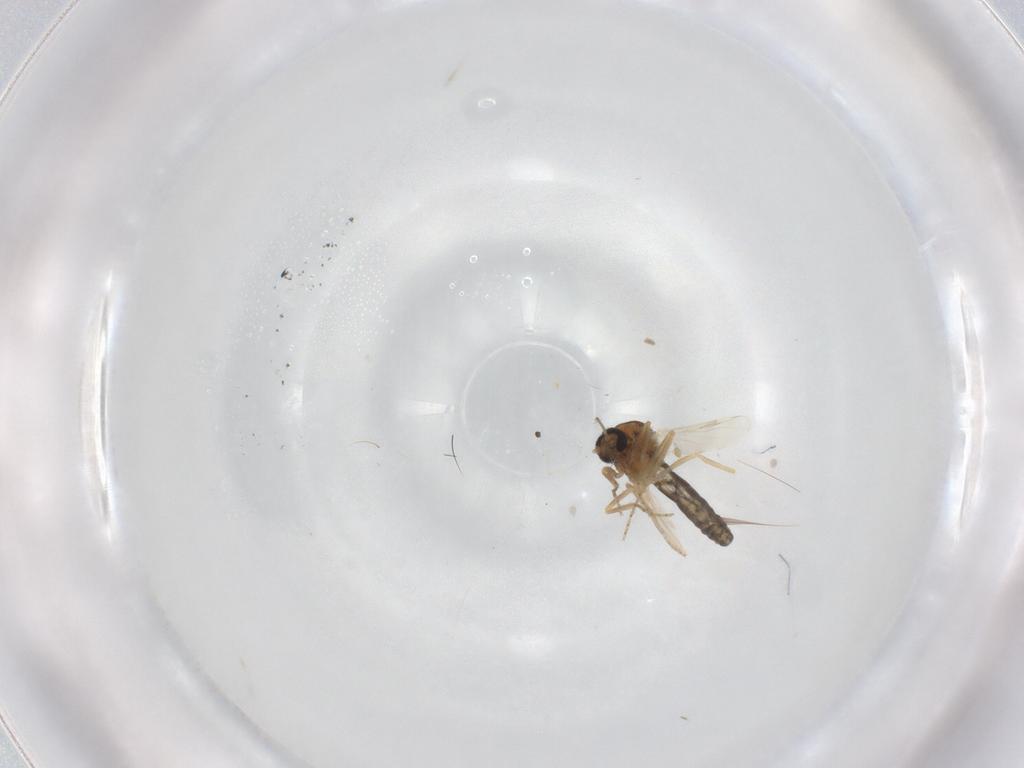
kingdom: Animalia
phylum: Arthropoda
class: Insecta
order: Diptera
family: Ceratopogonidae
